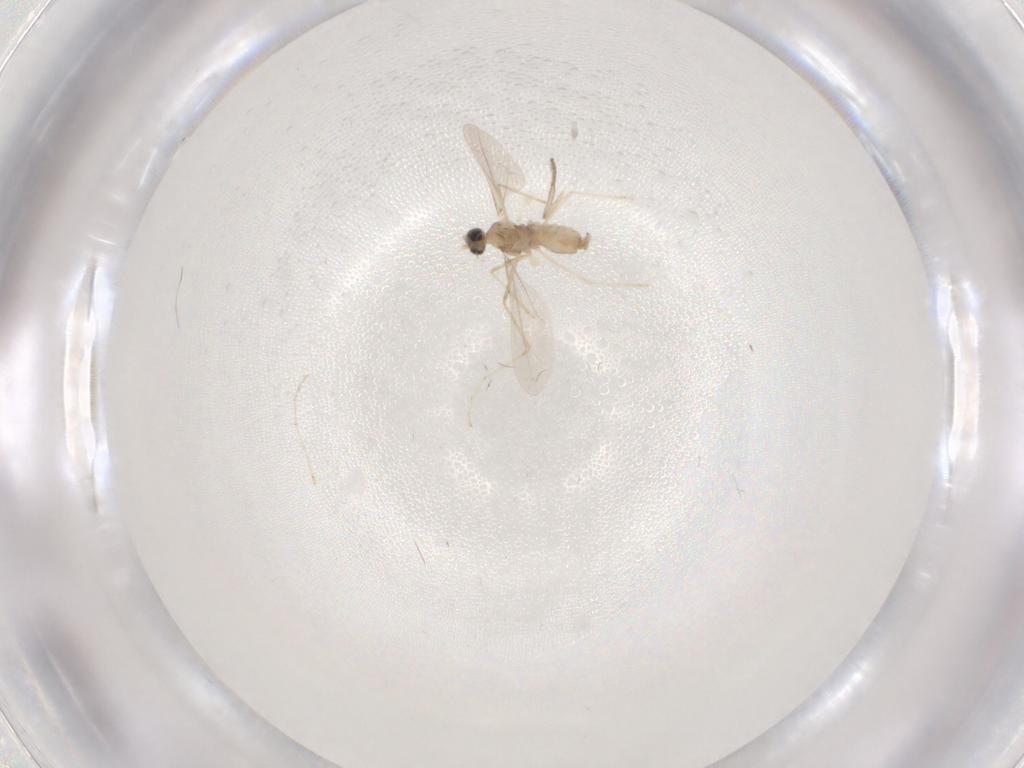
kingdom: Animalia
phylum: Arthropoda
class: Insecta
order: Diptera
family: Cecidomyiidae
